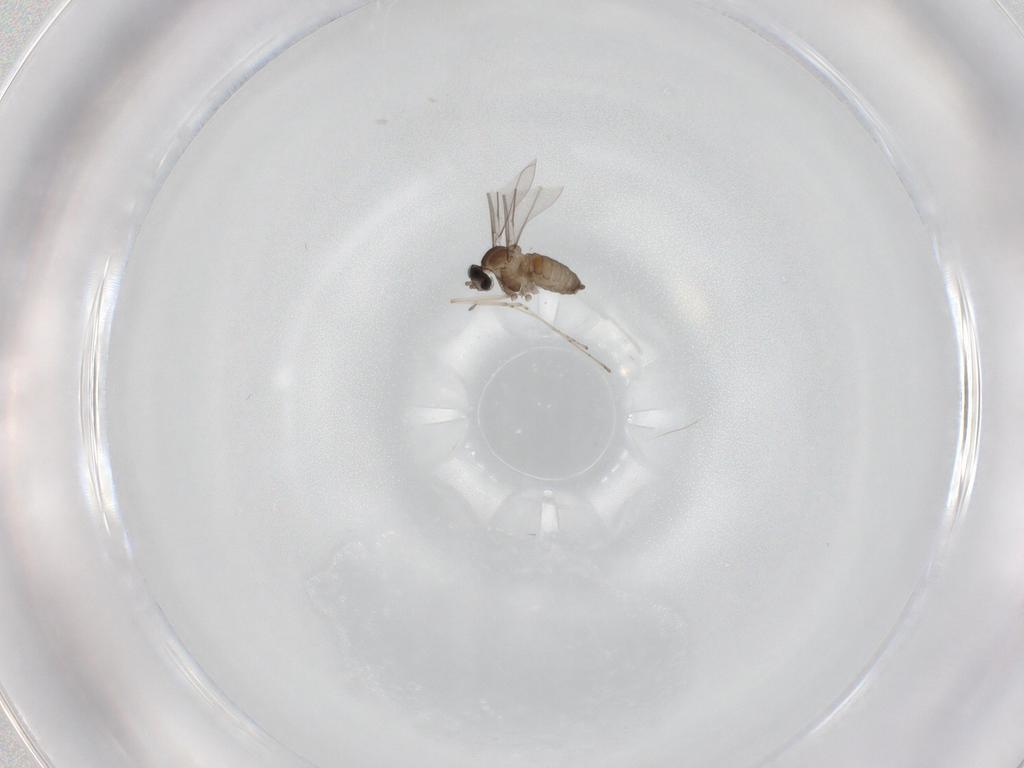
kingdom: Animalia
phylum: Arthropoda
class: Insecta
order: Diptera
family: Cecidomyiidae
